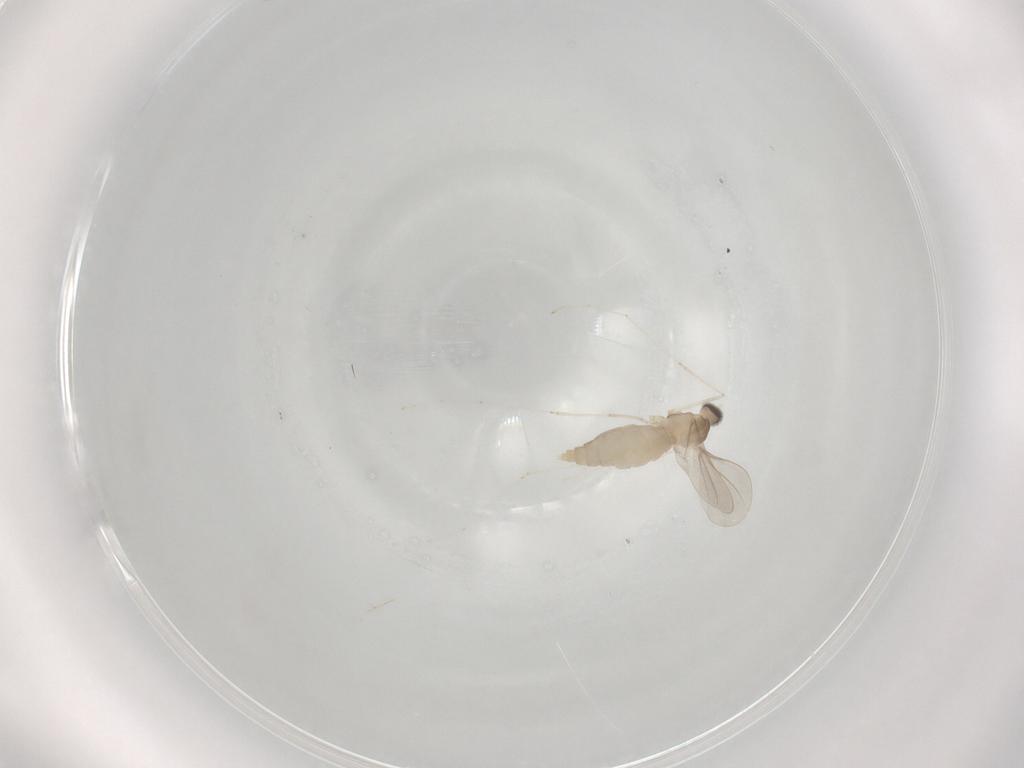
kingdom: Animalia
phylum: Arthropoda
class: Insecta
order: Diptera
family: Cecidomyiidae
